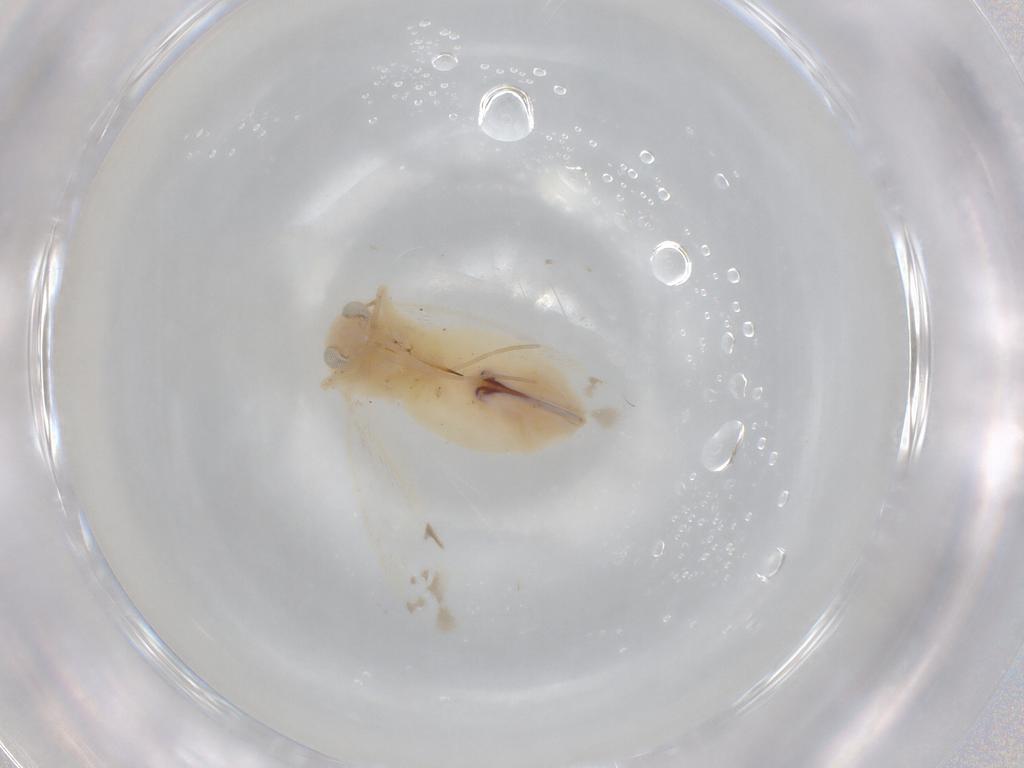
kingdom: Animalia
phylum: Arthropoda
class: Insecta
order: Hemiptera
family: Miridae
